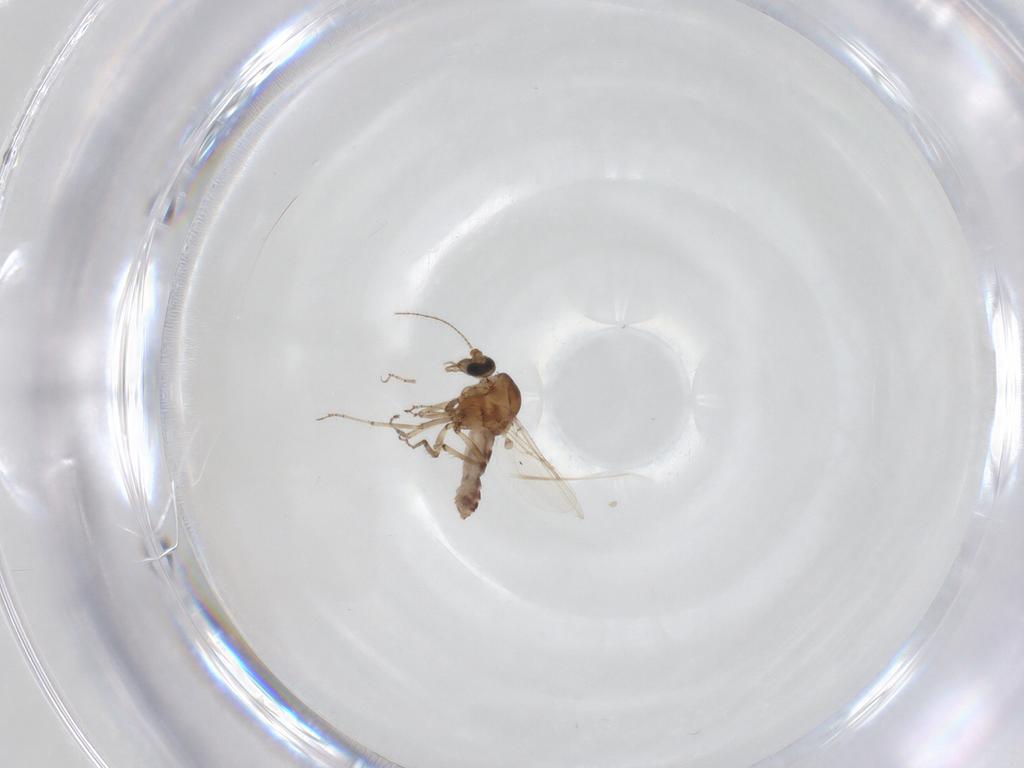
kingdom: Animalia
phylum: Arthropoda
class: Insecta
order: Diptera
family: Ceratopogonidae
